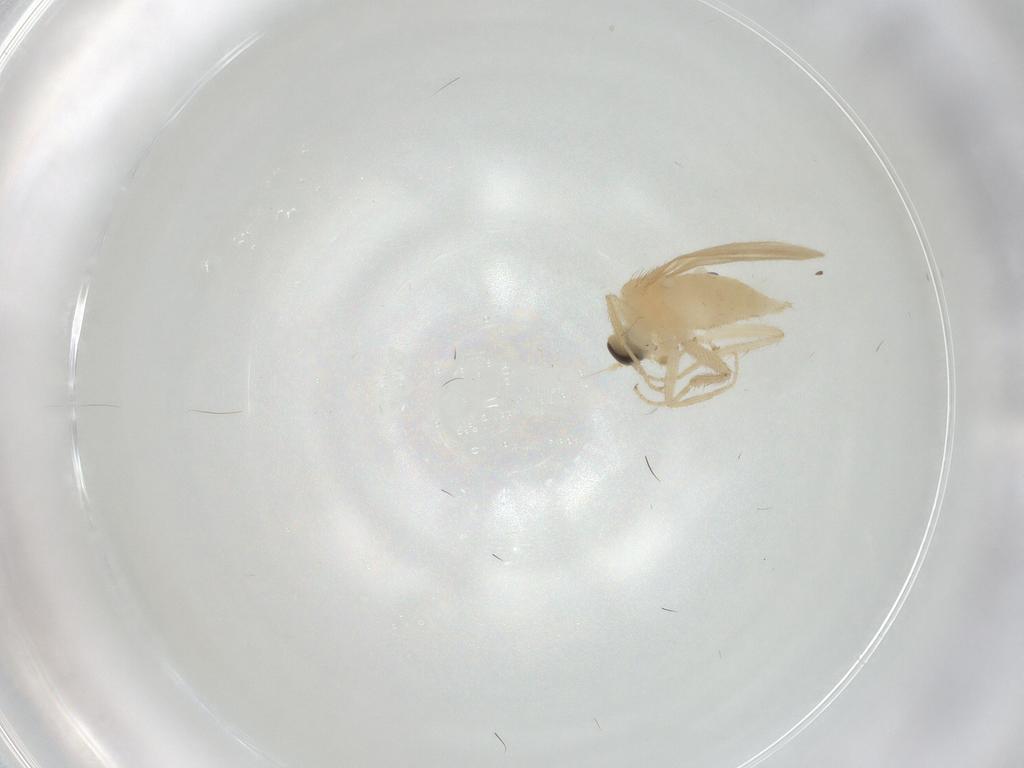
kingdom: Animalia
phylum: Arthropoda
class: Insecta
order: Diptera
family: Hybotidae
